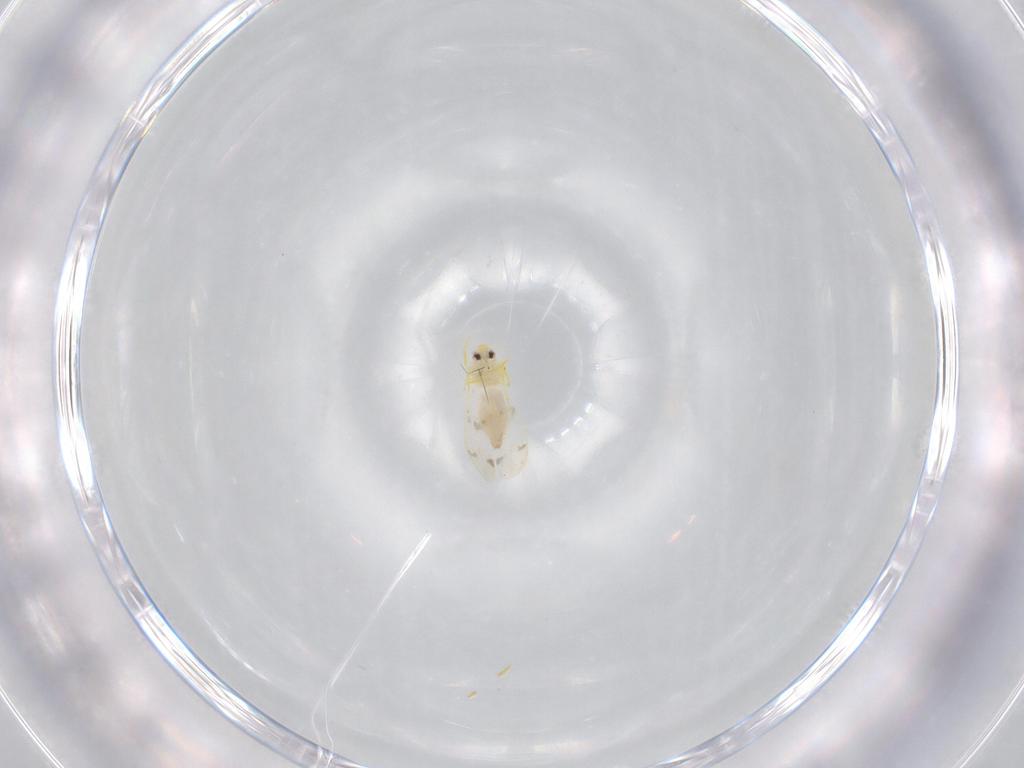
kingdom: Animalia
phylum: Arthropoda
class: Insecta
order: Hemiptera
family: Aleyrodidae
